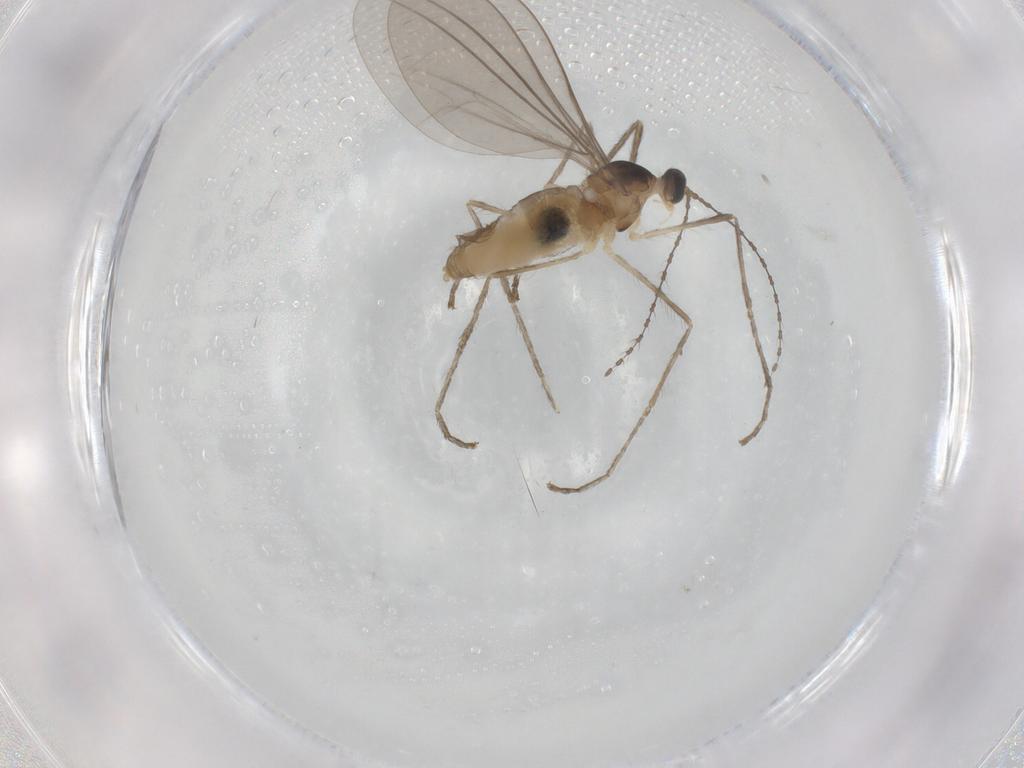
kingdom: Animalia
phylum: Arthropoda
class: Insecta
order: Diptera
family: Cecidomyiidae
